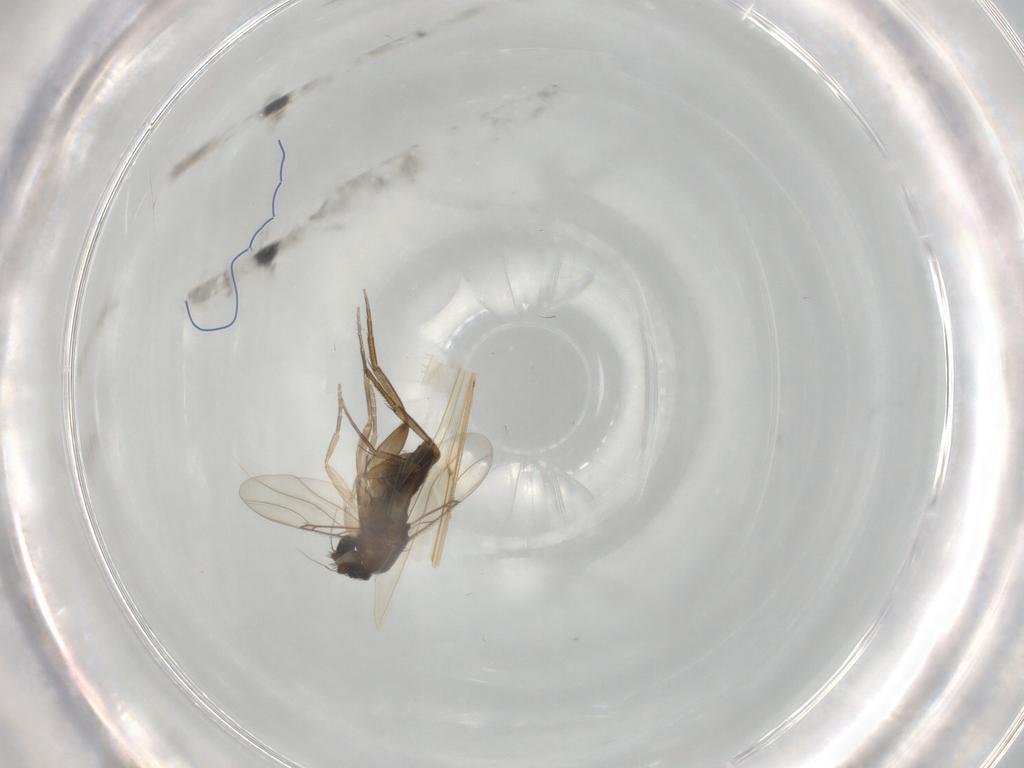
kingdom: Animalia
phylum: Arthropoda
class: Insecta
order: Diptera
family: Phoridae
